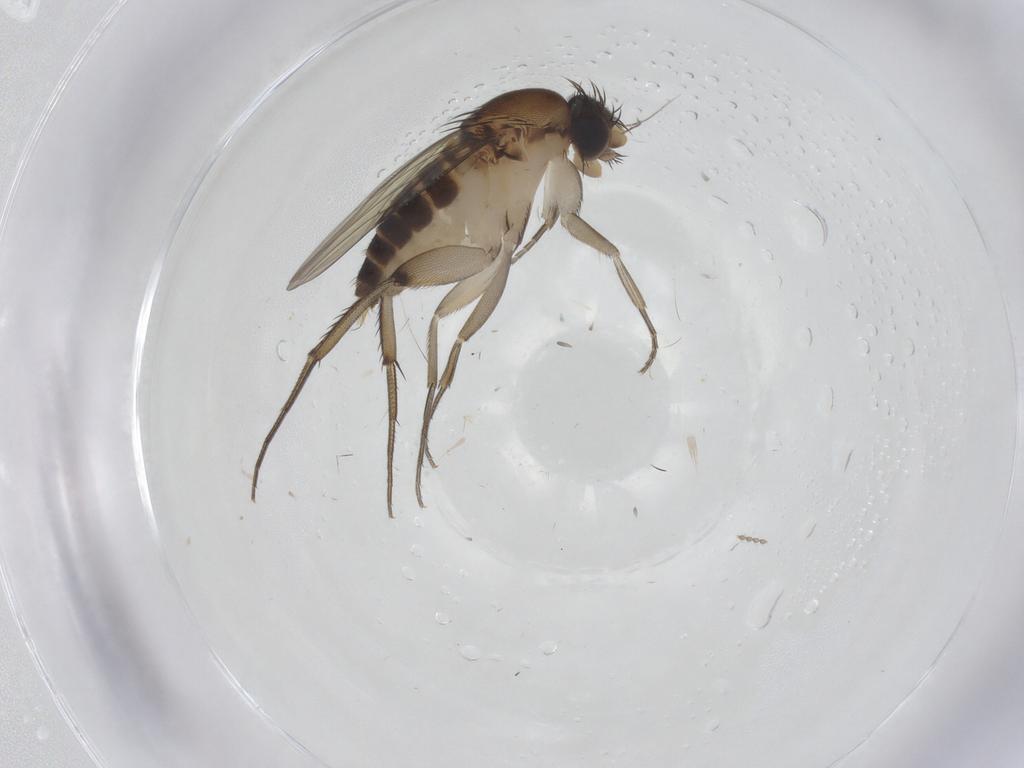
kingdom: Animalia
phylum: Arthropoda
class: Insecta
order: Diptera
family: Phoridae
